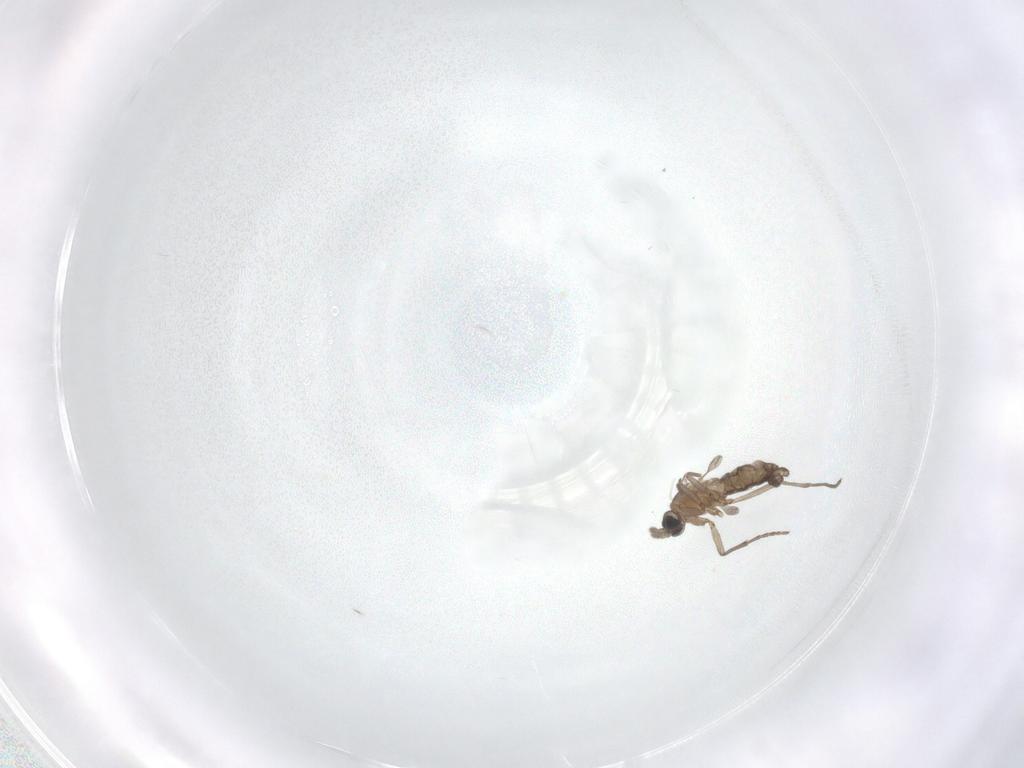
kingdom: Animalia
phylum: Arthropoda
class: Insecta
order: Diptera
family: Sciaridae
